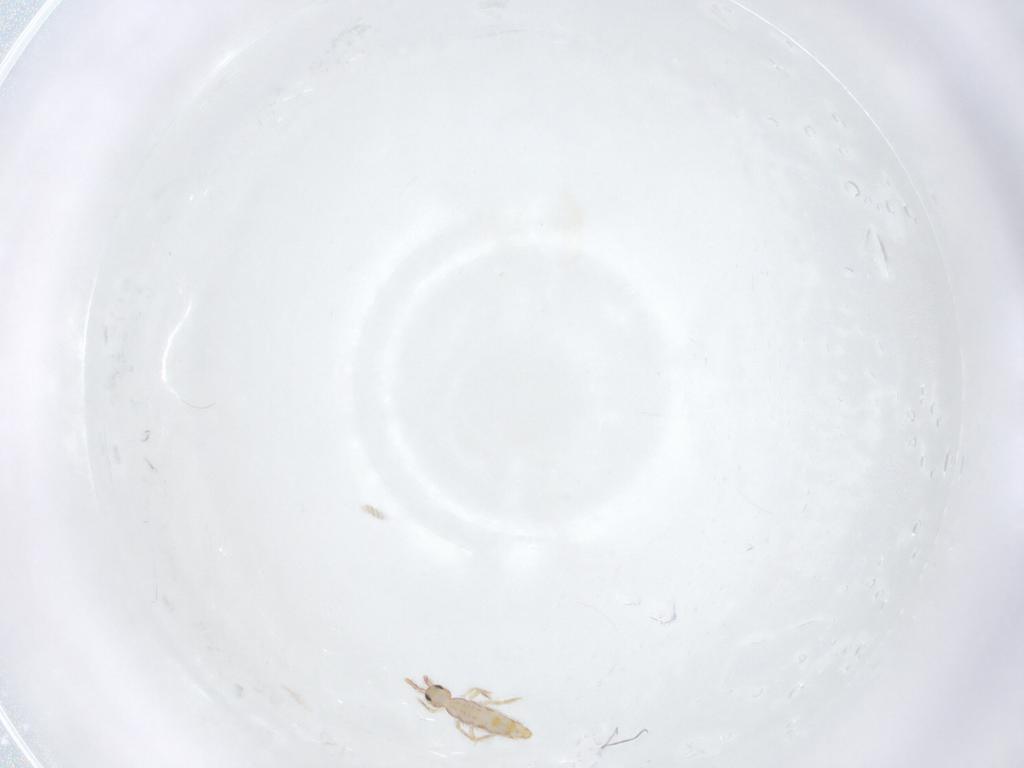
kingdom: Animalia
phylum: Arthropoda
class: Collembola
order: Entomobryomorpha
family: Entomobryidae
